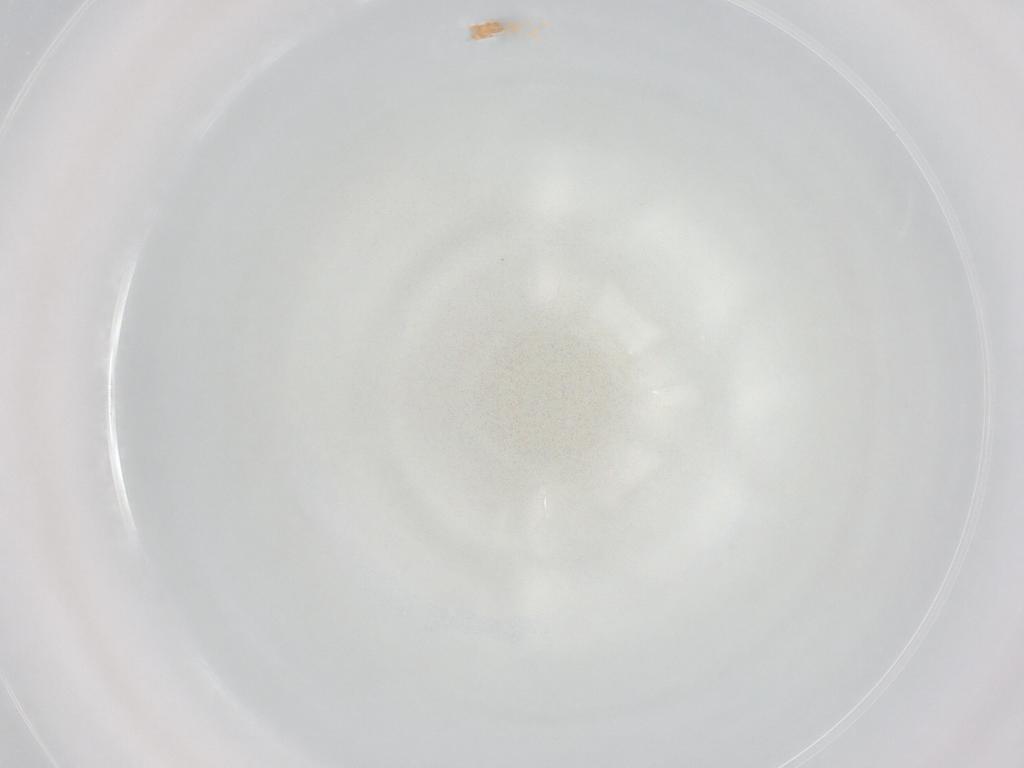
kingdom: Animalia
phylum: Arthropoda
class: Arachnida
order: Sarcoptiformes
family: Brachychthoniidae
